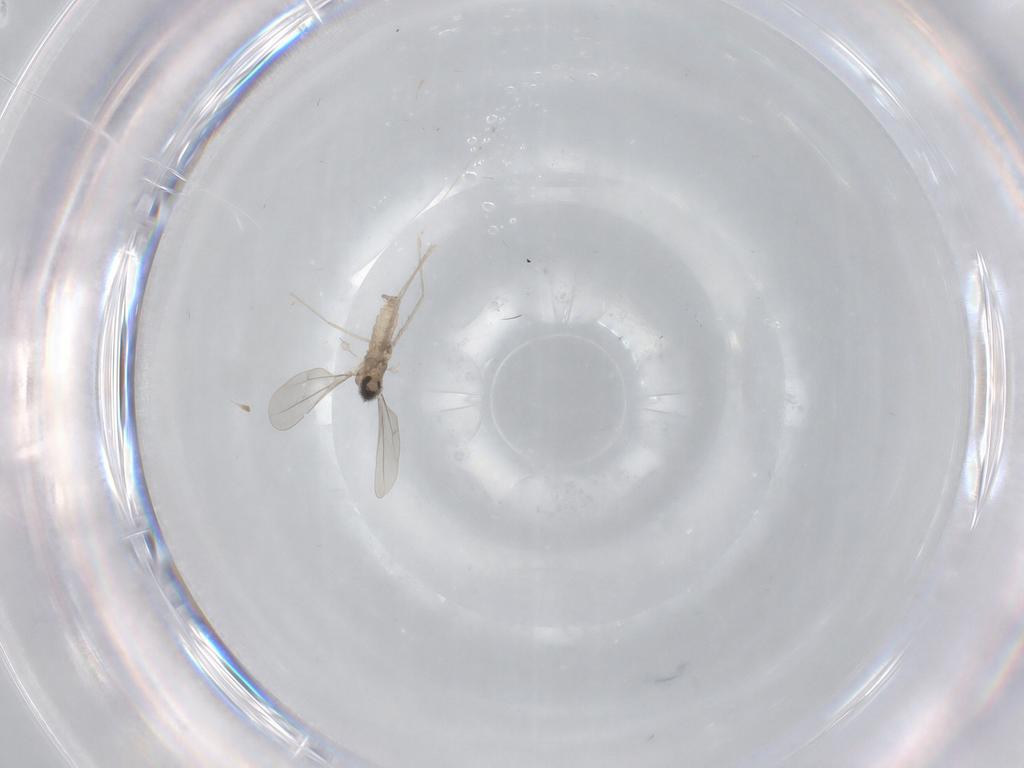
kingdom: Animalia
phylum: Arthropoda
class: Insecta
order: Diptera
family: Cecidomyiidae
